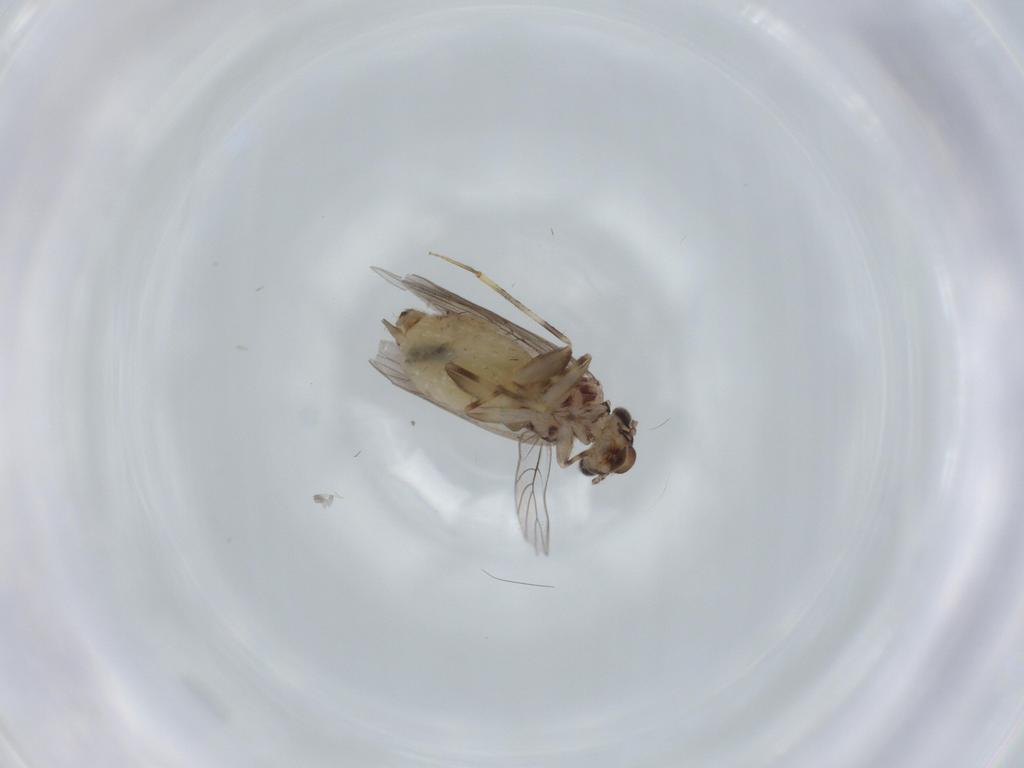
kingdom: Animalia
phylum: Arthropoda
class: Insecta
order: Psocodea
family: Lepidopsocidae
